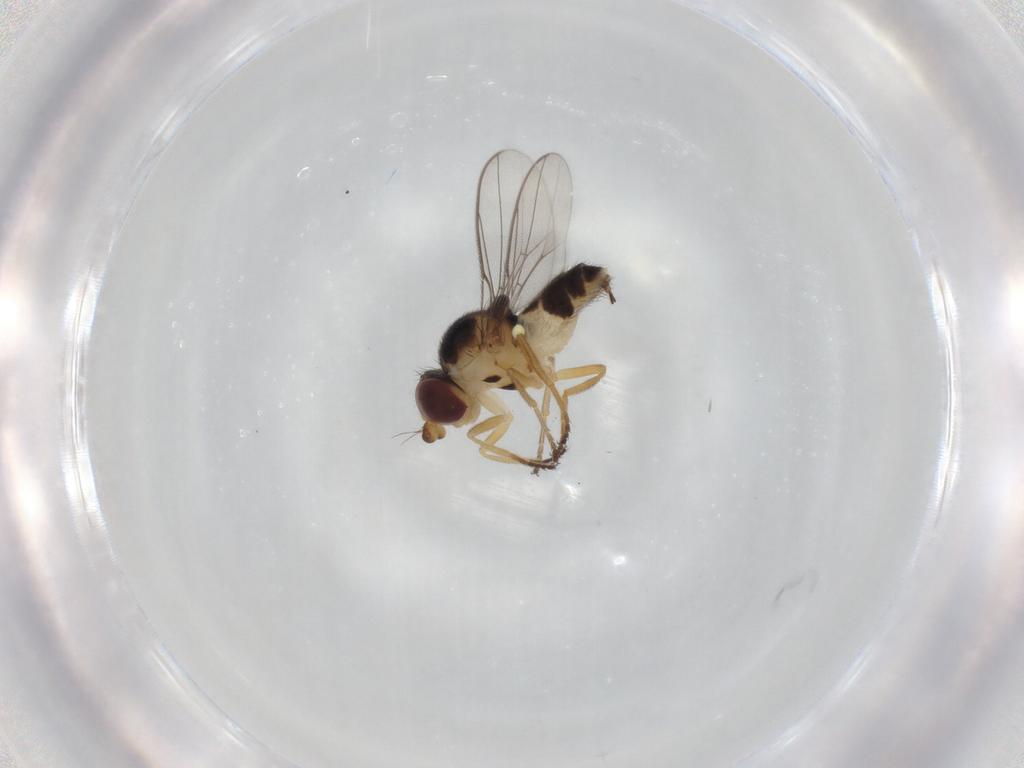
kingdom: Animalia
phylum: Arthropoda
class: Insecta
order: Diptera
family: Chloropidae
